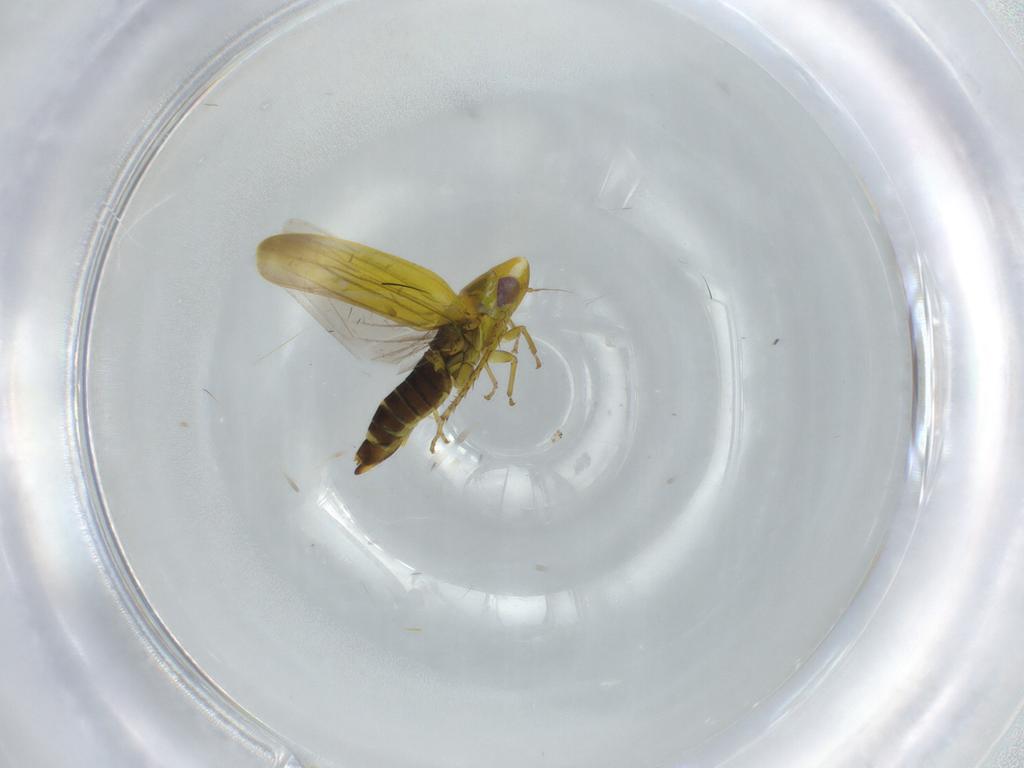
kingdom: Animalia
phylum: Arthropoda
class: Insecta
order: Hemiptera
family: Cicadellidae
